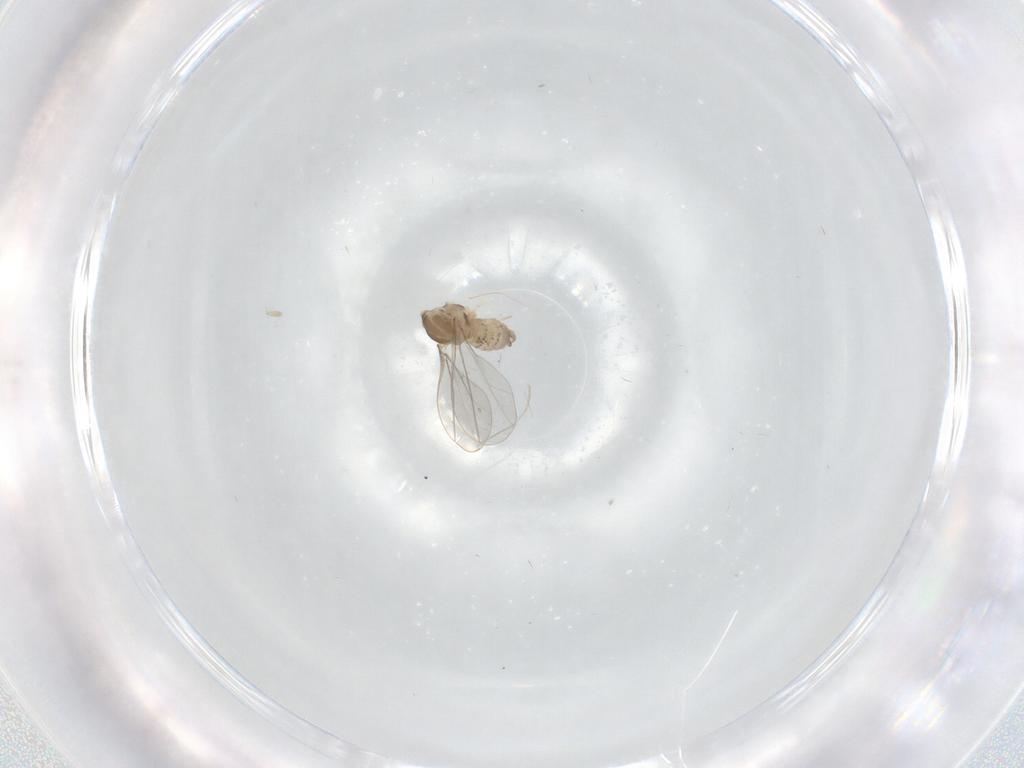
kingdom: Animalia
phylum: Arthropoda
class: Insecta
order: Diptera
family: Cecidomyiidae
